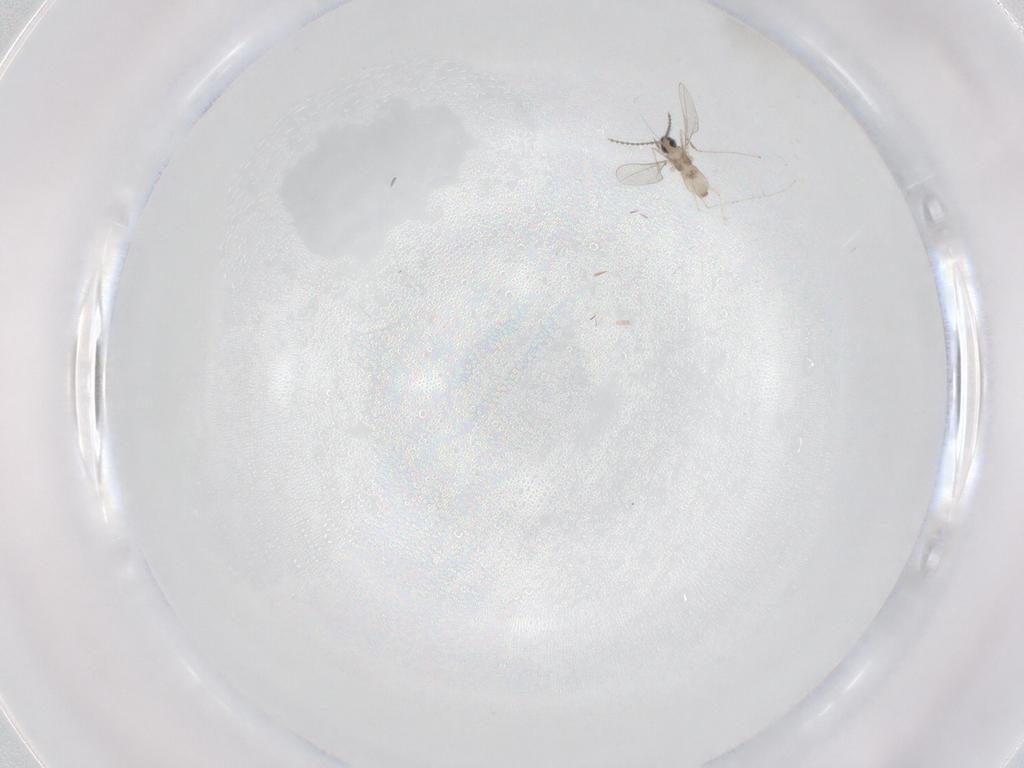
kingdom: Animalia
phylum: Arthropoda
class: Insecta
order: Diptera
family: Cecidomyiidae
